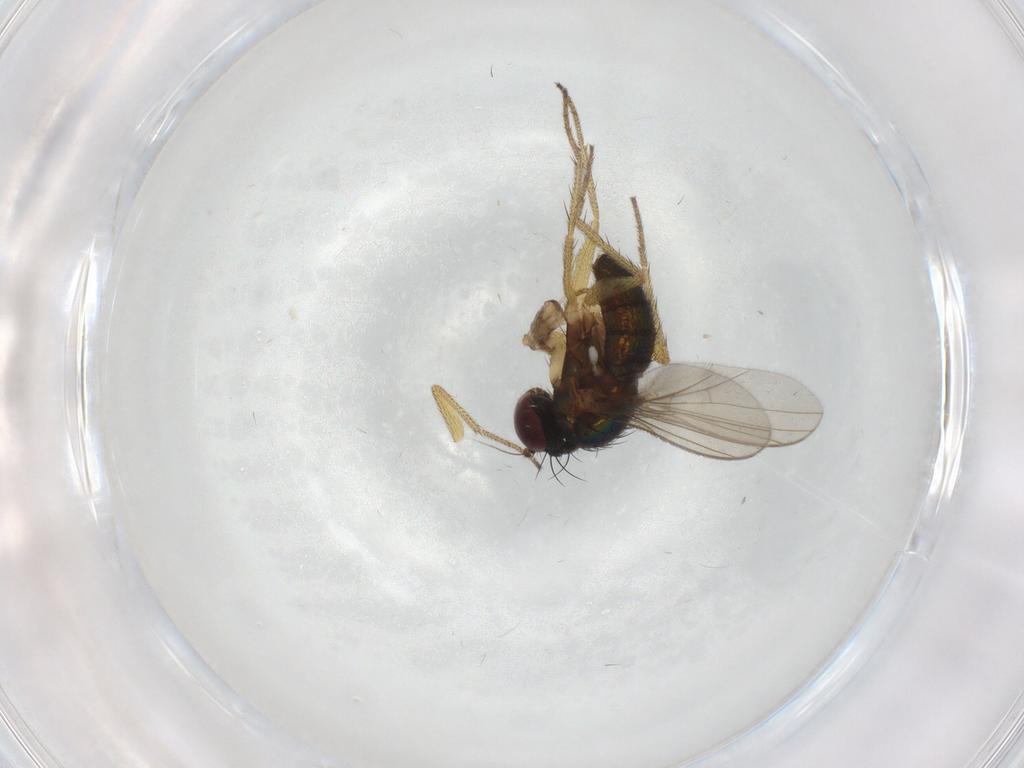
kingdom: Animalia
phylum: Arthropoda
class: Insecta
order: Diptera
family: Cecidomyiidae
